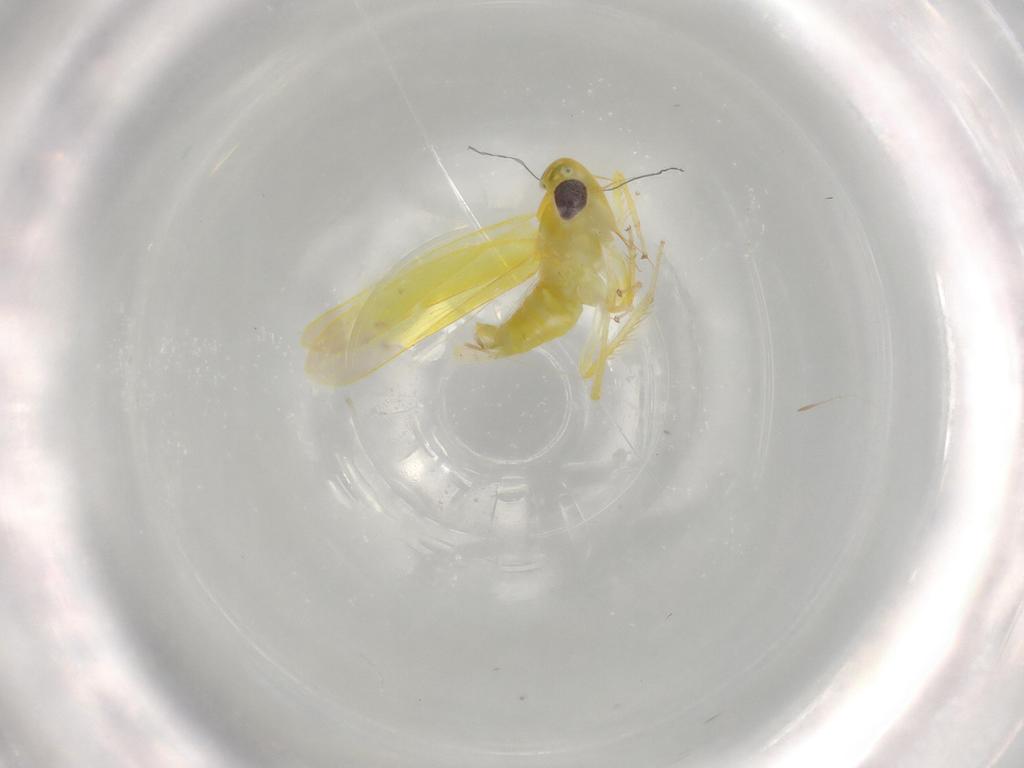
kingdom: Animalia
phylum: Arthropoda
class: Insecta
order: Hemiptera
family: Cicadellidae
